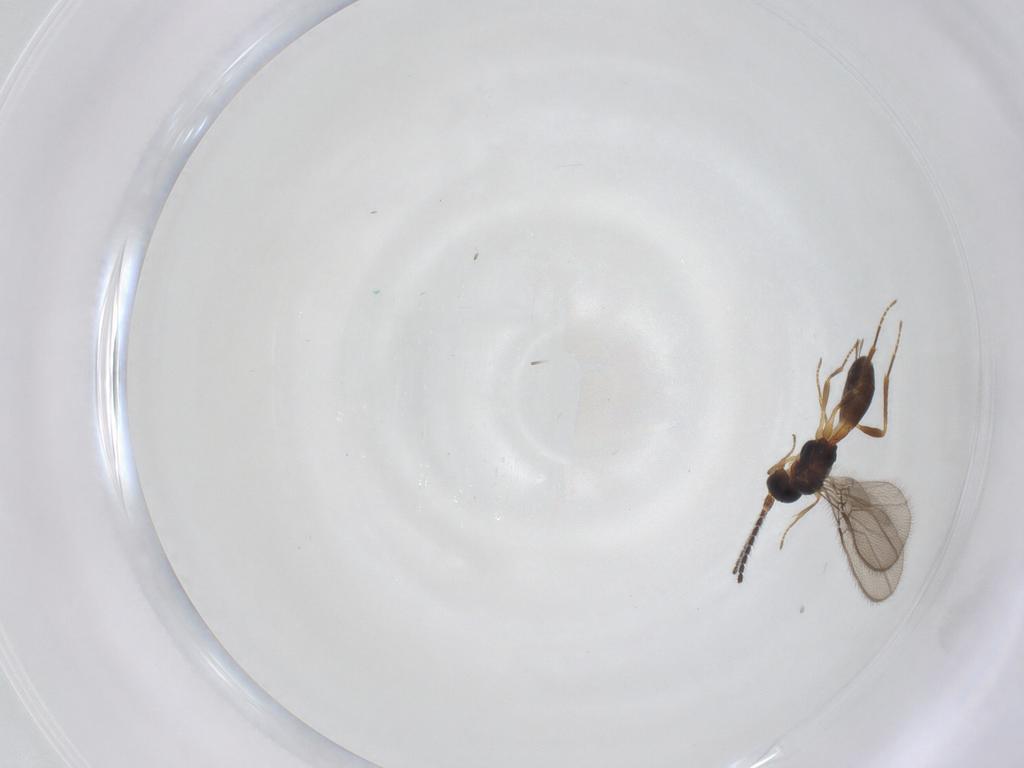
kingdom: Animalia
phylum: Arthropoda
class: Insecta
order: Hymenoptera
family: Braconidae
